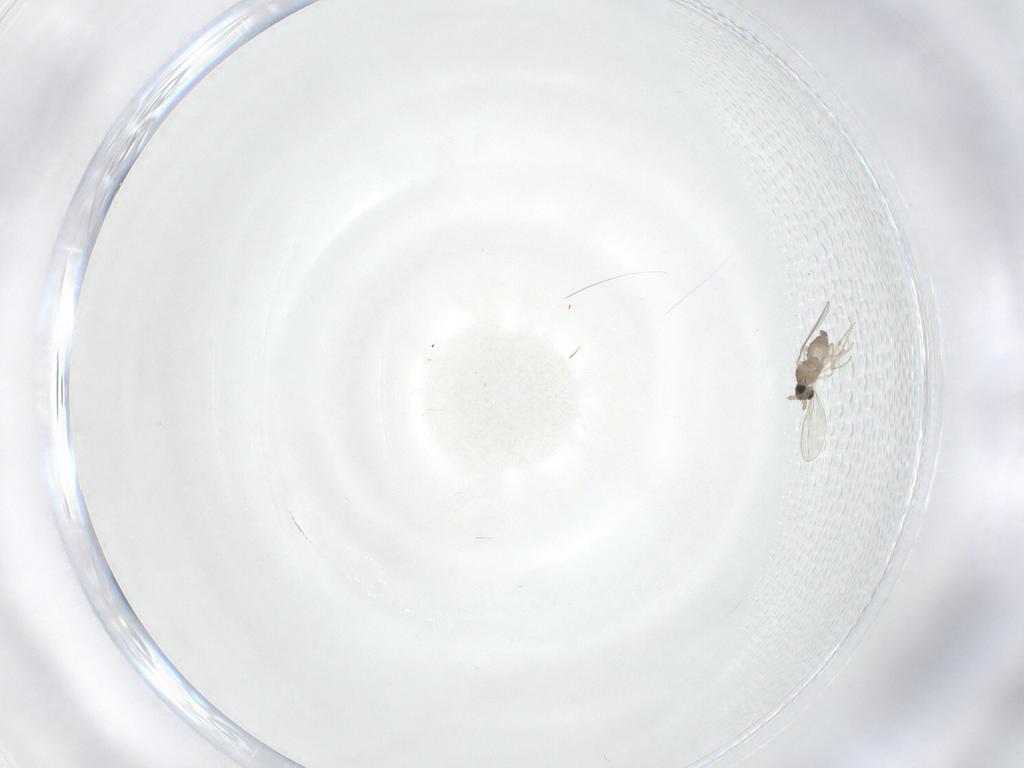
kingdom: Animalia
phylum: Arthropoda
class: Insecta
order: Diptera
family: Cecidomyiidae
